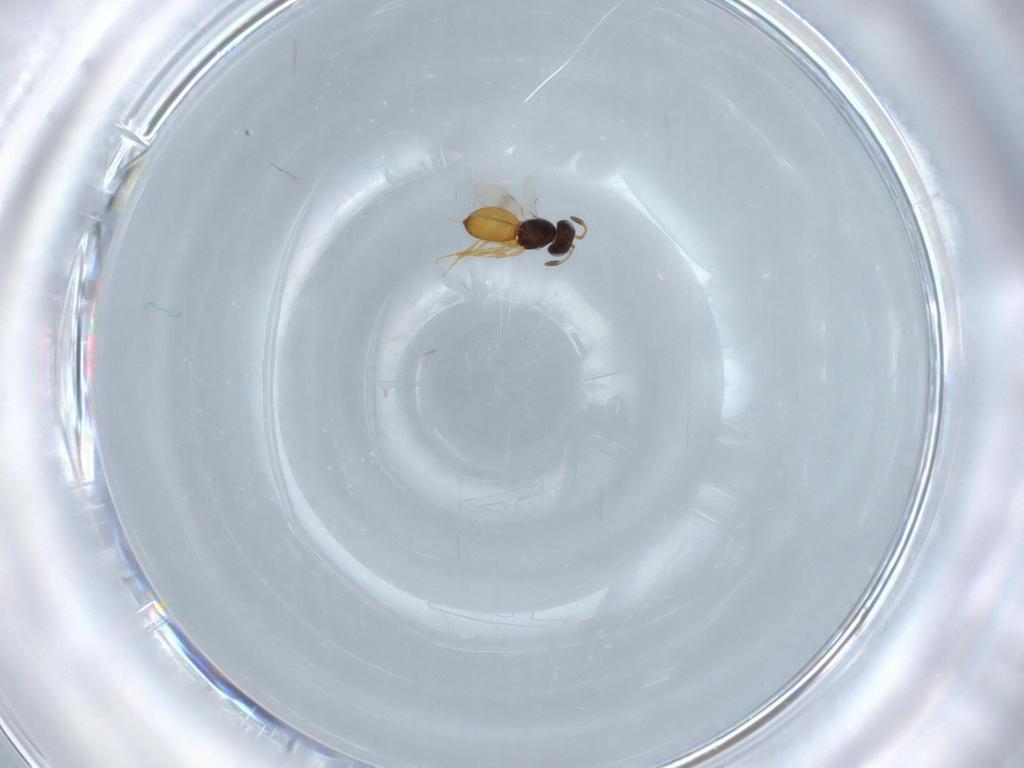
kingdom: Animalia
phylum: Arthropoda
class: Insecta
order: Hymenoptera
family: Scelionidae
